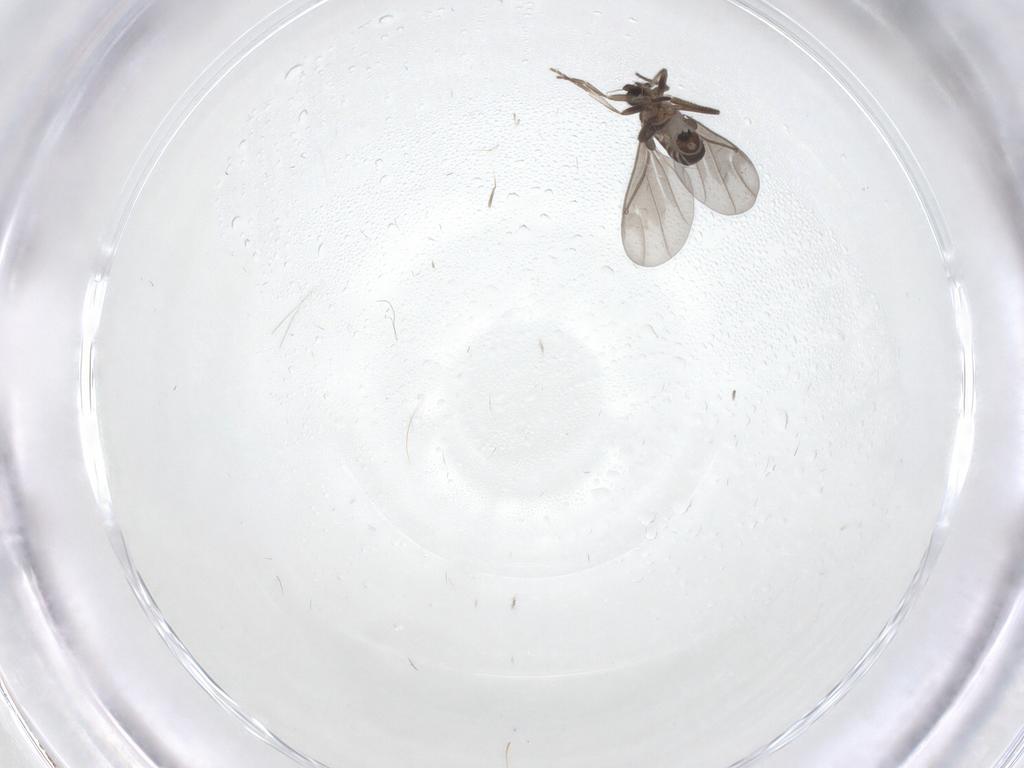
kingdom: Animalia
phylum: Arthropoda
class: Insecta
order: Diptera
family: Phoridae
